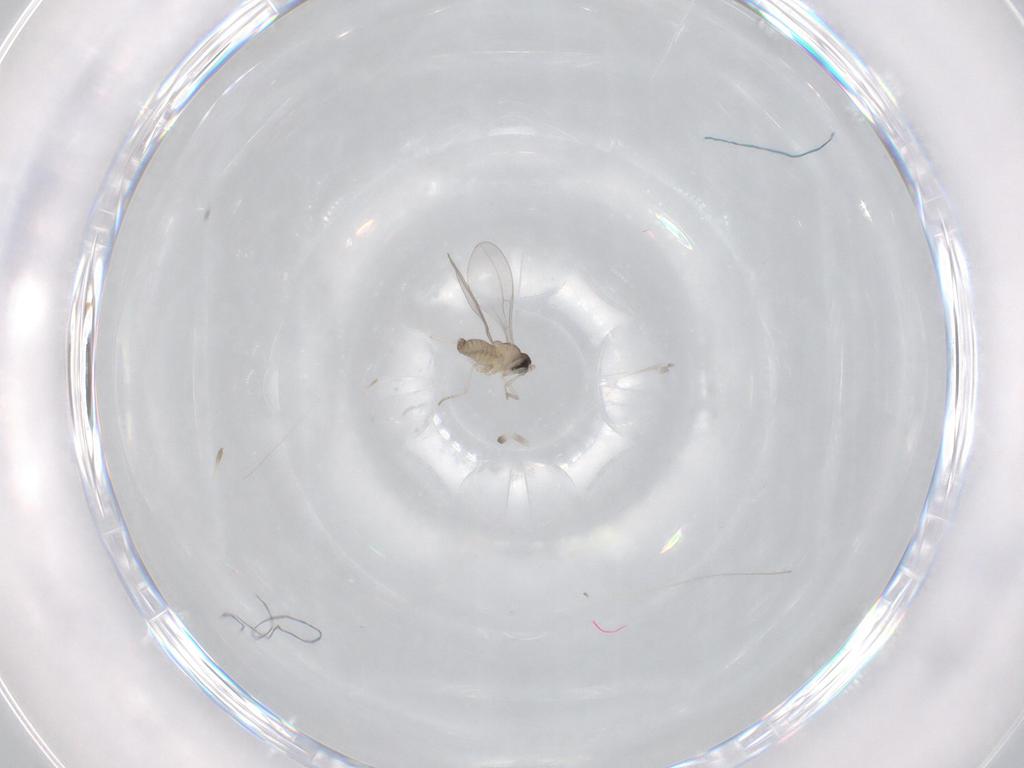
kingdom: Animalia
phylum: Arthropoda
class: Insecta
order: Diptera
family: Cecidomyiidae
